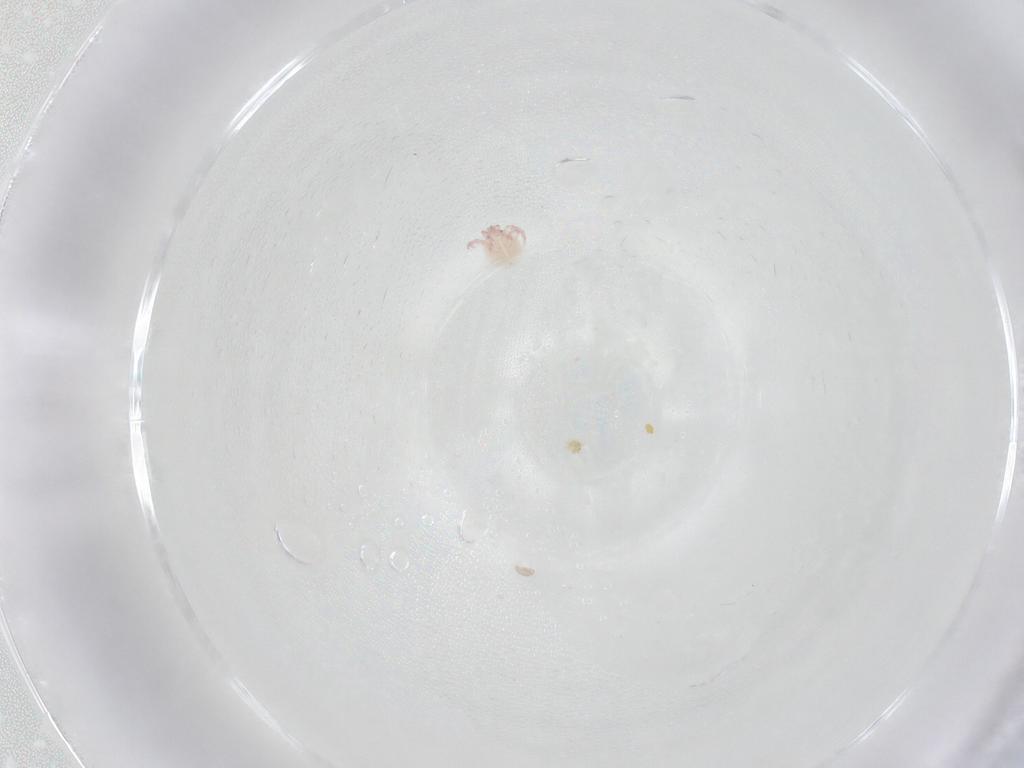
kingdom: Animalia
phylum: Arthropoda
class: Arachnida
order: Trombidiformes
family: Pionidae
